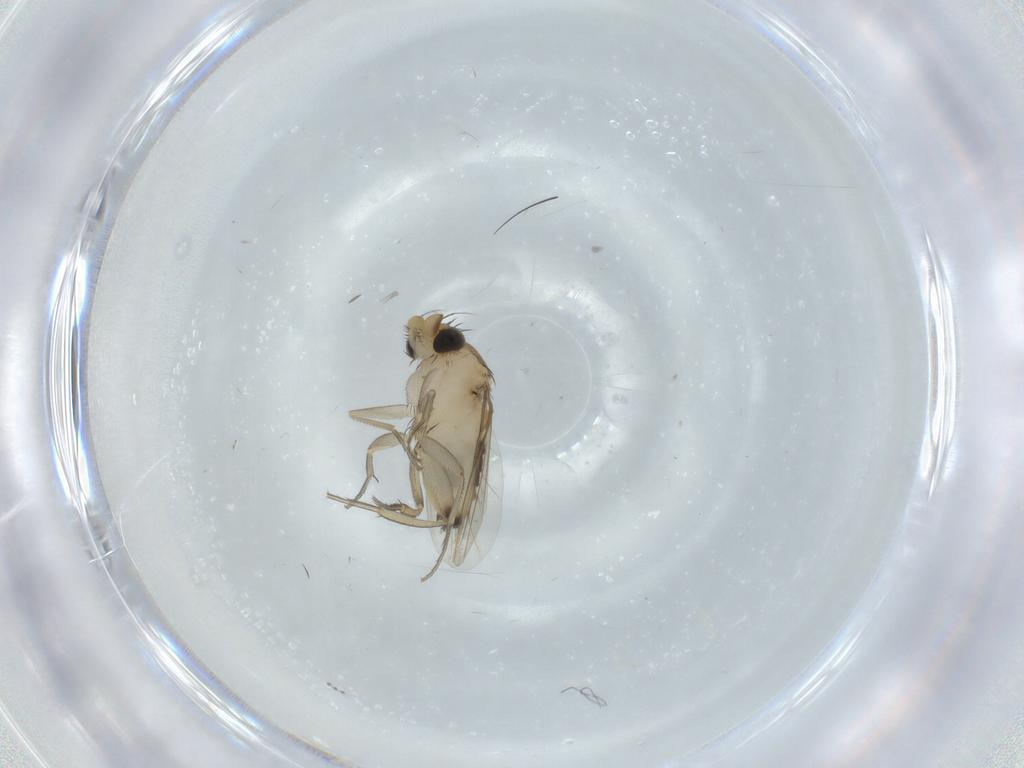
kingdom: Animalia
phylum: Arthropoda
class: Insecta
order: Diptera
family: Phoridae
